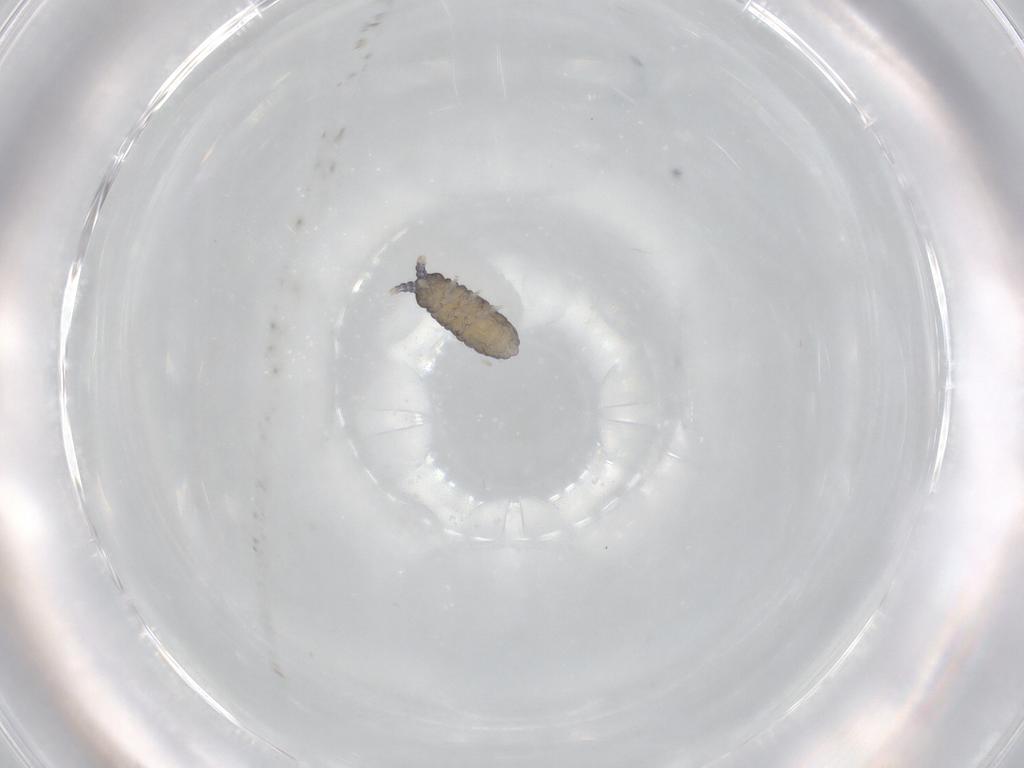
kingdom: Animalia
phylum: Arthropoda
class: Collembola
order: Poduromorpha
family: Neanuridae
